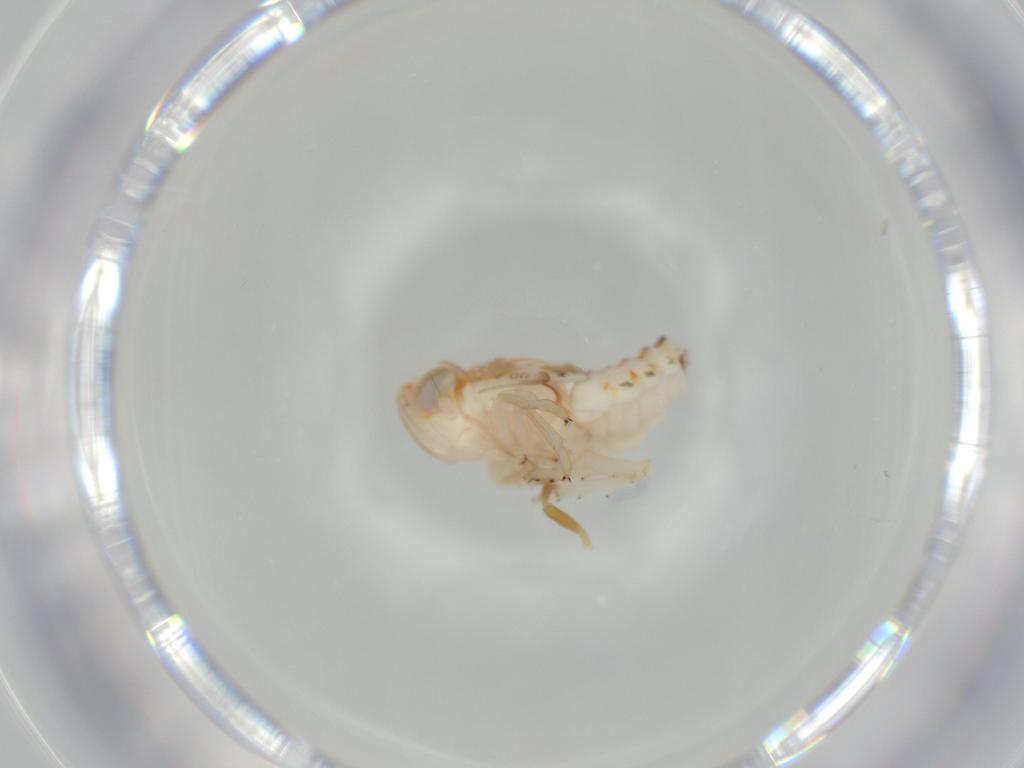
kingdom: Animalia
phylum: Arthropoda
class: Insecta
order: Hemiptera
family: Nogodinidae
